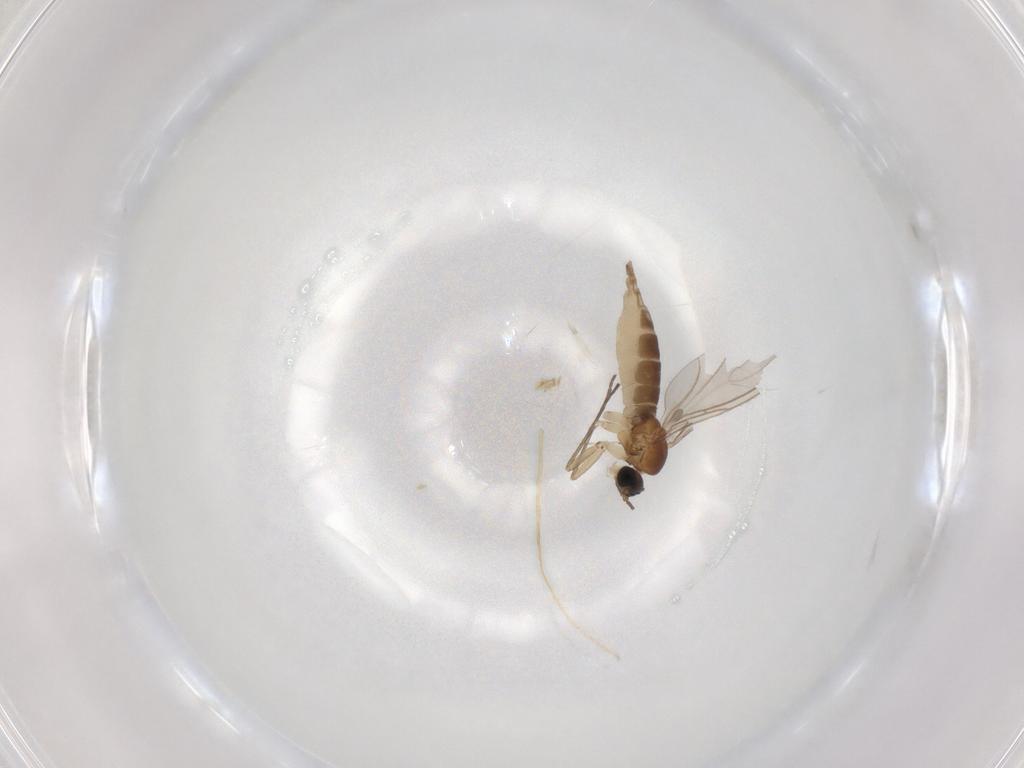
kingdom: Animalia
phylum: Arthropoda
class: Insecta
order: Diptera
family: Sciaridae
